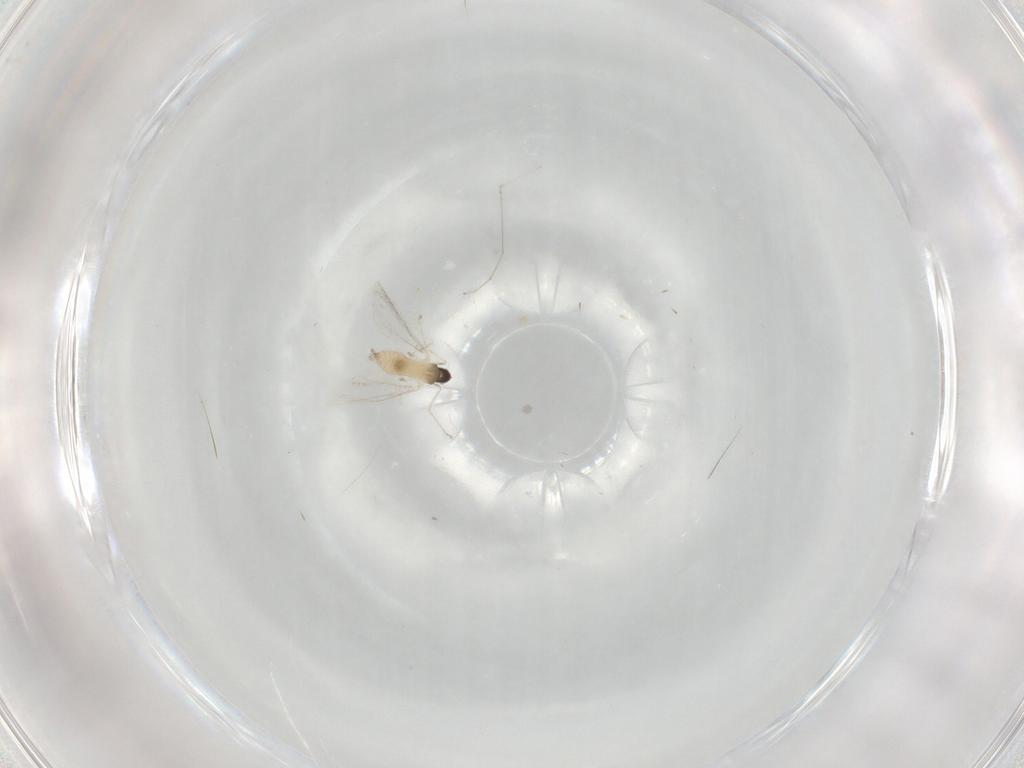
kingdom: Animalia
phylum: Arthropoda
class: Insecta
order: Diptera
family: Cecidomyiidae
